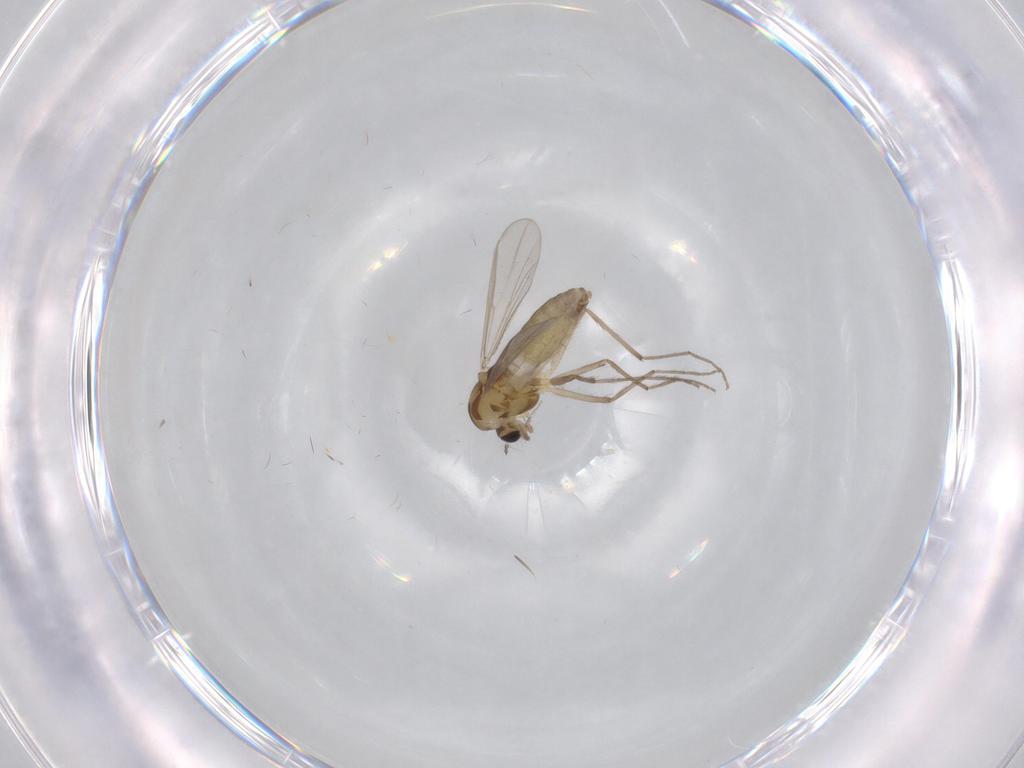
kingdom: Animalia
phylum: Arthropoda
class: Insecta
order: Diptera
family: Chironomidae
